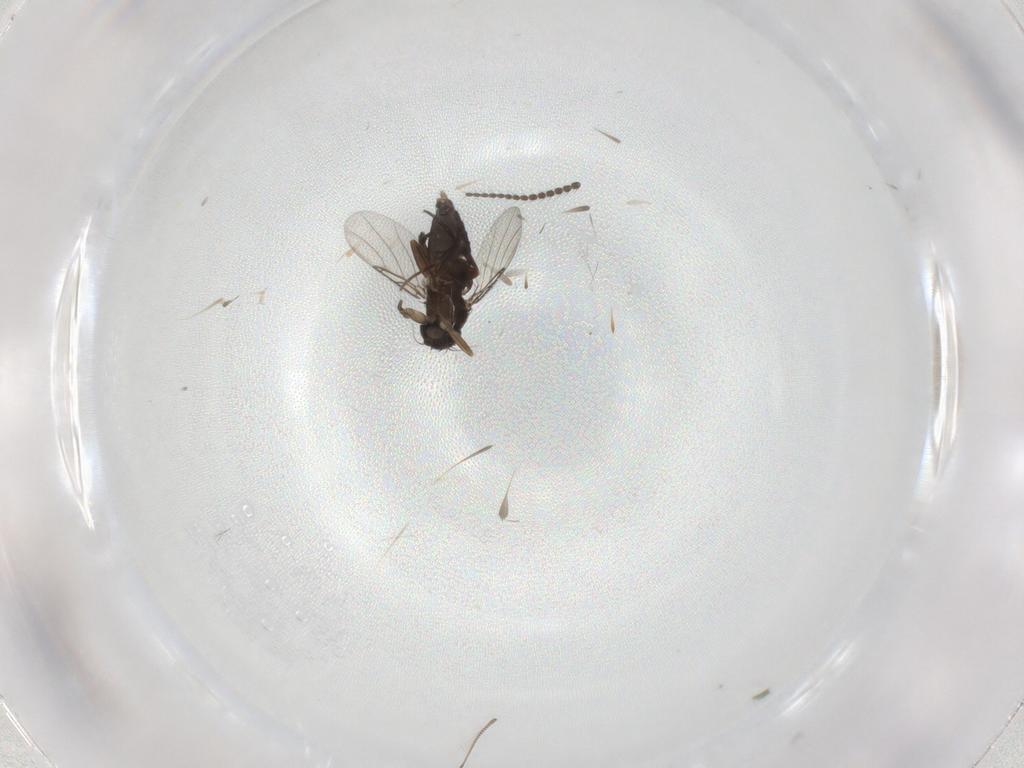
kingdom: Animalia
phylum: Arthropoda
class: Insecta
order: Diptera
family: Phoridae
